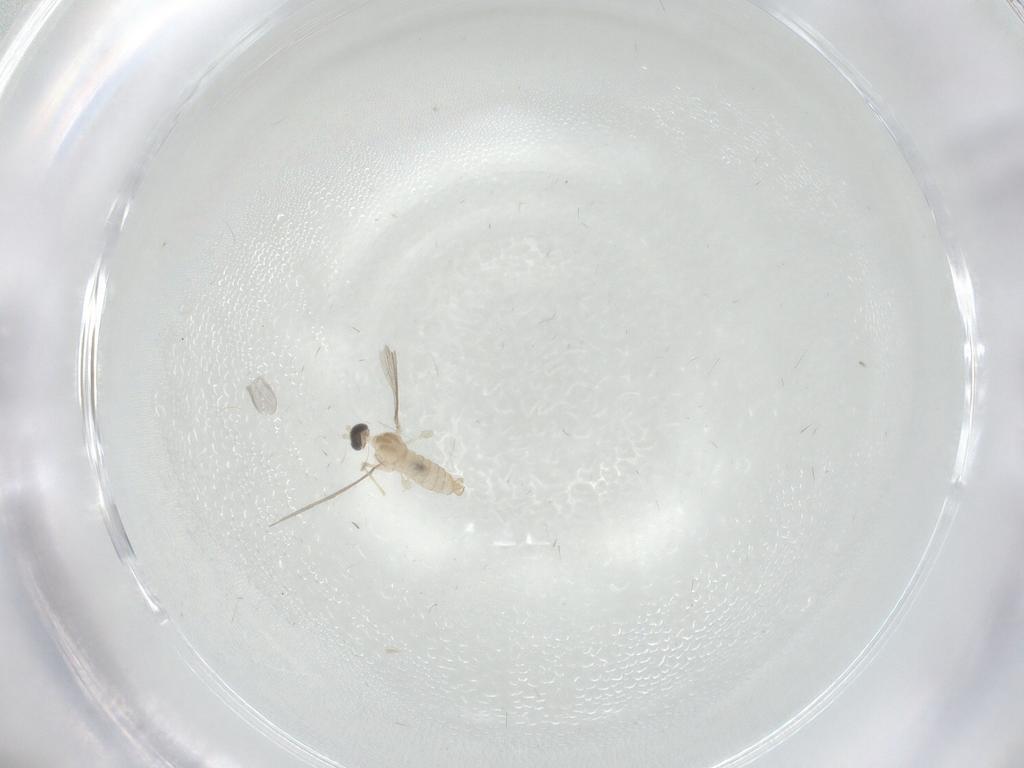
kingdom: Animalia
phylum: Arthropoda
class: Insecta
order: Diptera
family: Cecidomyiidae
